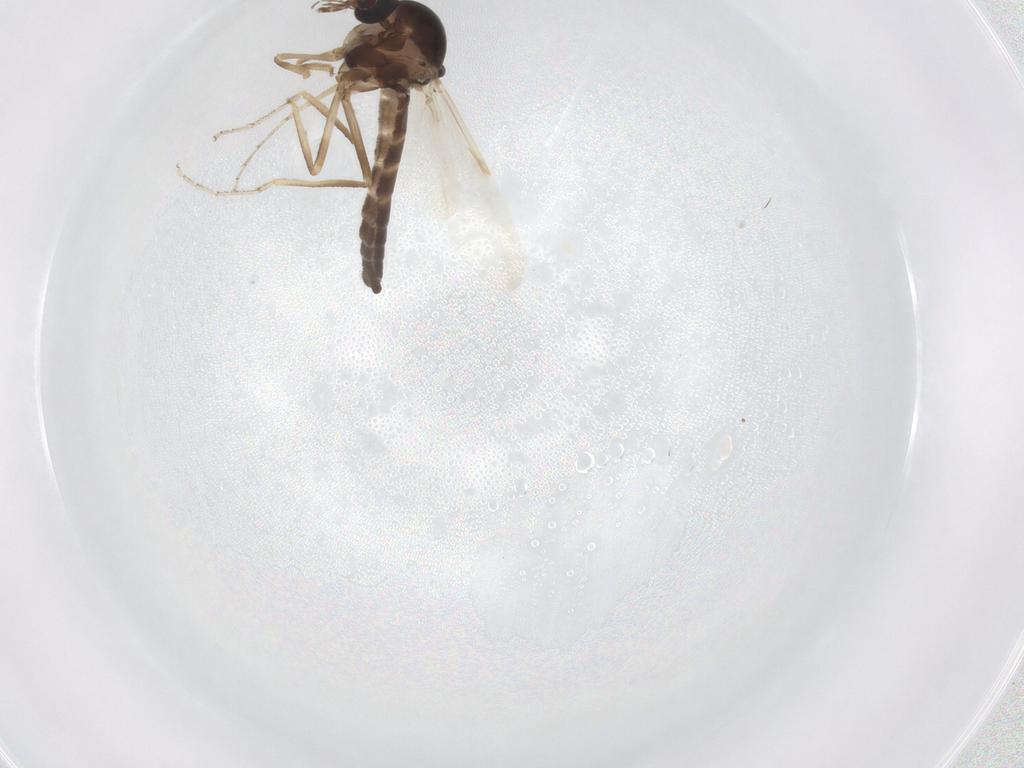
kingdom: Animalia
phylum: Arthropoda
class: Insecta
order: Diptera
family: Ceratopogonidae
